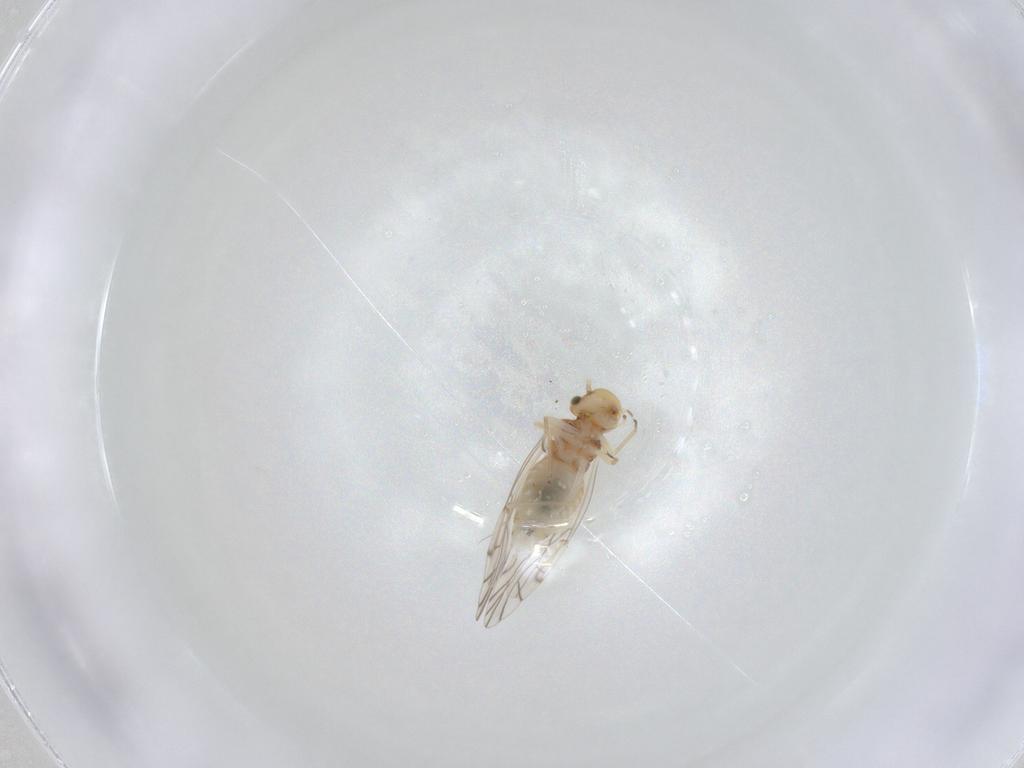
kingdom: Animalia
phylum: Arthropoda
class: Insecta
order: Psocodea
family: Lachesillidae
